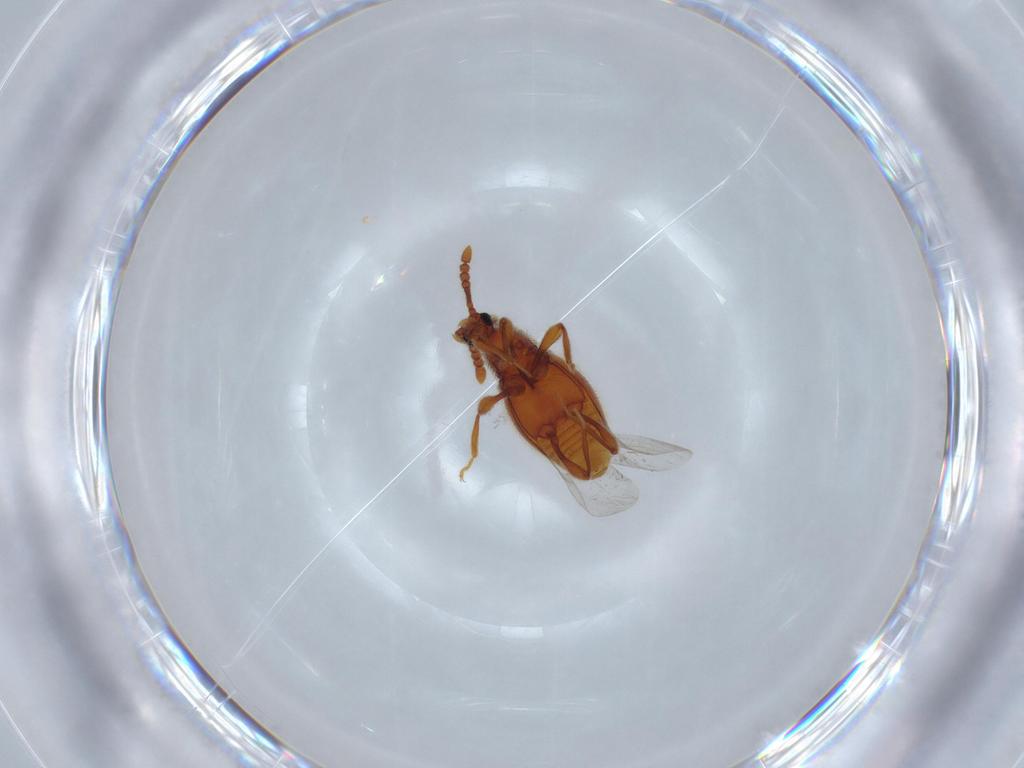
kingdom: Animalia
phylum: Arthropoda
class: Insecta
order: Coleoptera
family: Staphylinidae
